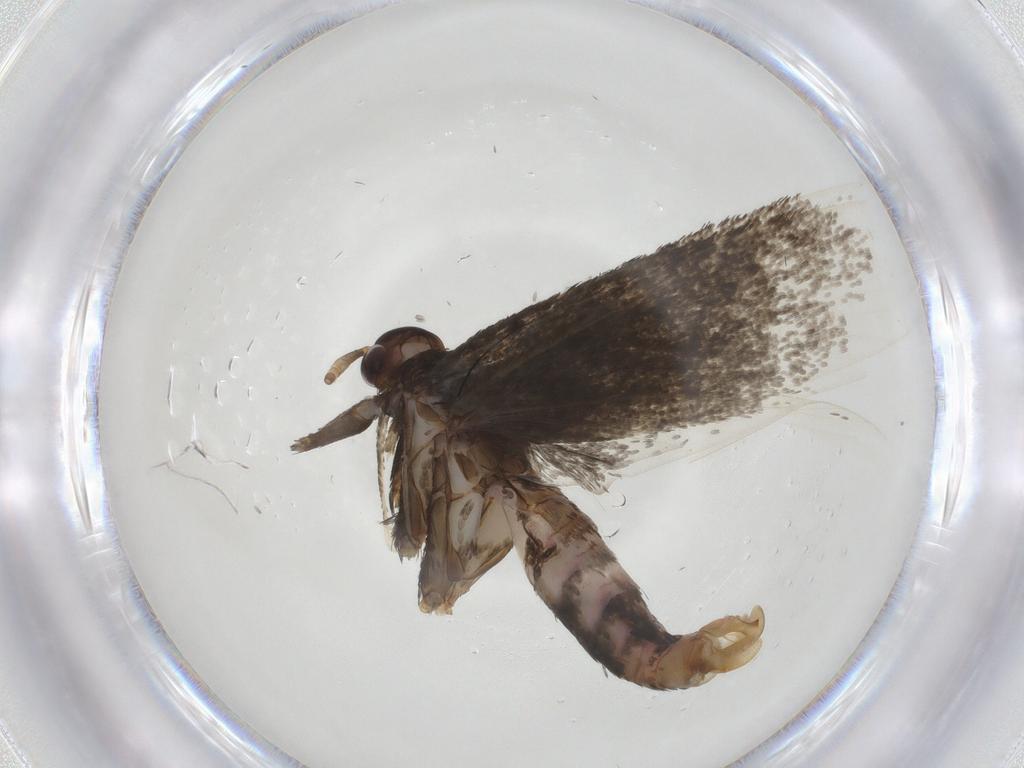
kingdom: Animalia
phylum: Arthropoda
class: Insecta
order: Lepidoptera
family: Lecithoceridae
